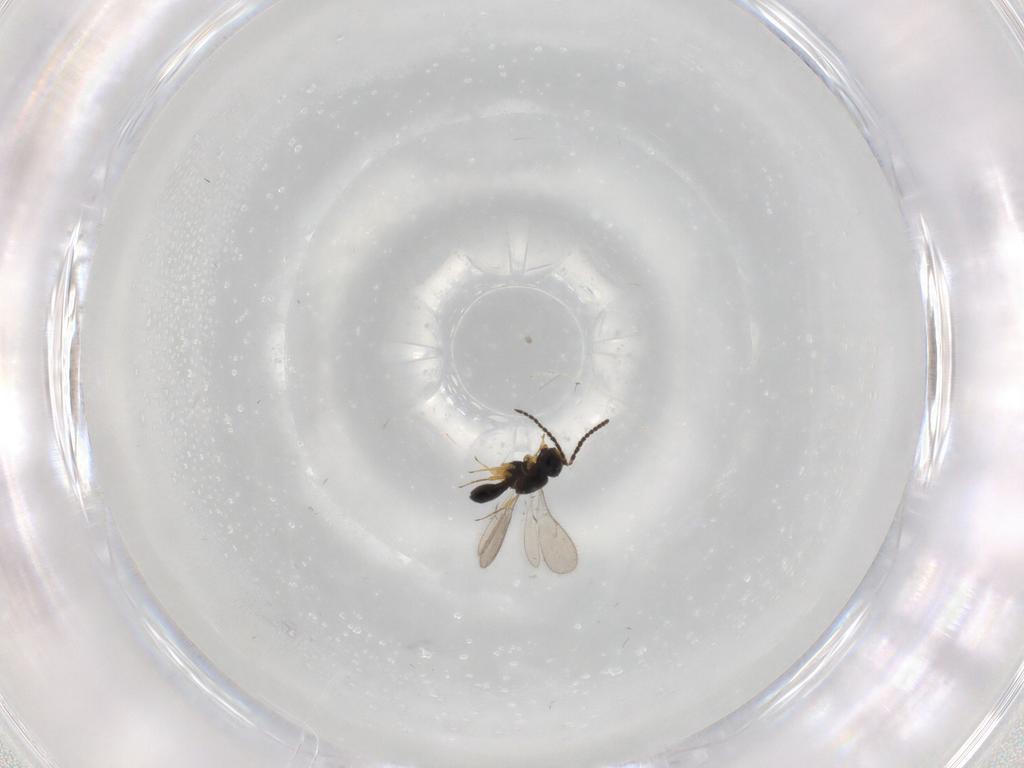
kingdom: Animalia
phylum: Arthropoda
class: Insecta
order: Hymenoptera
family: Scelionidae
